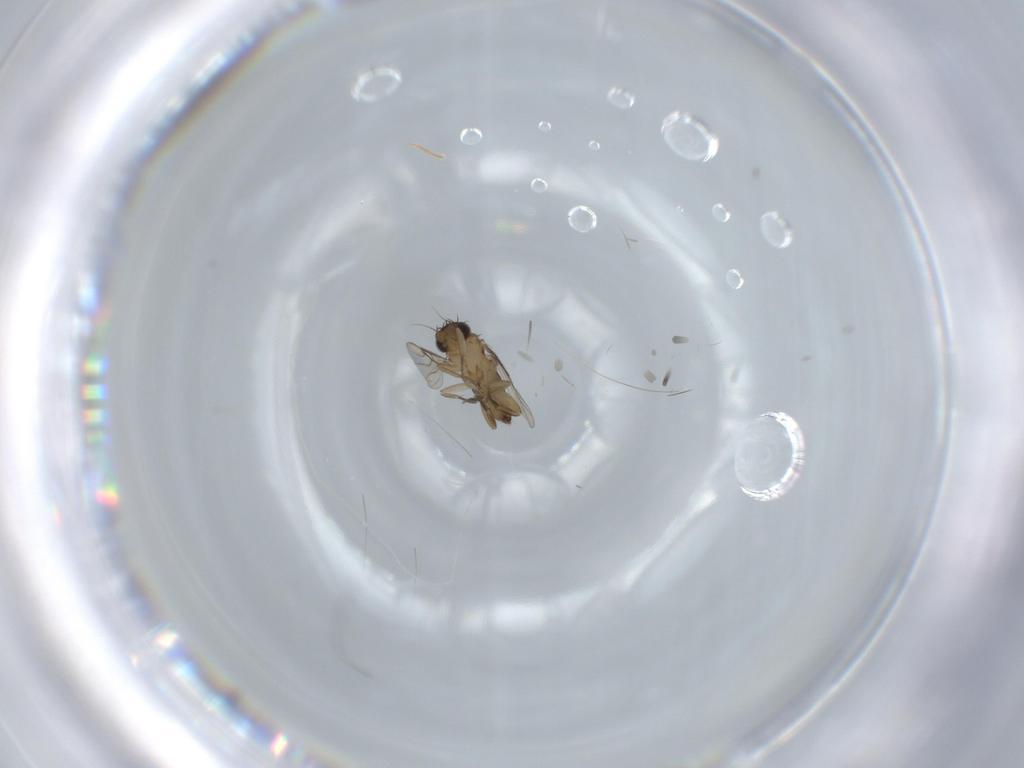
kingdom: Animalia
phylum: Arthropoda
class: Insecta
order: Diptera
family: Phoridae
